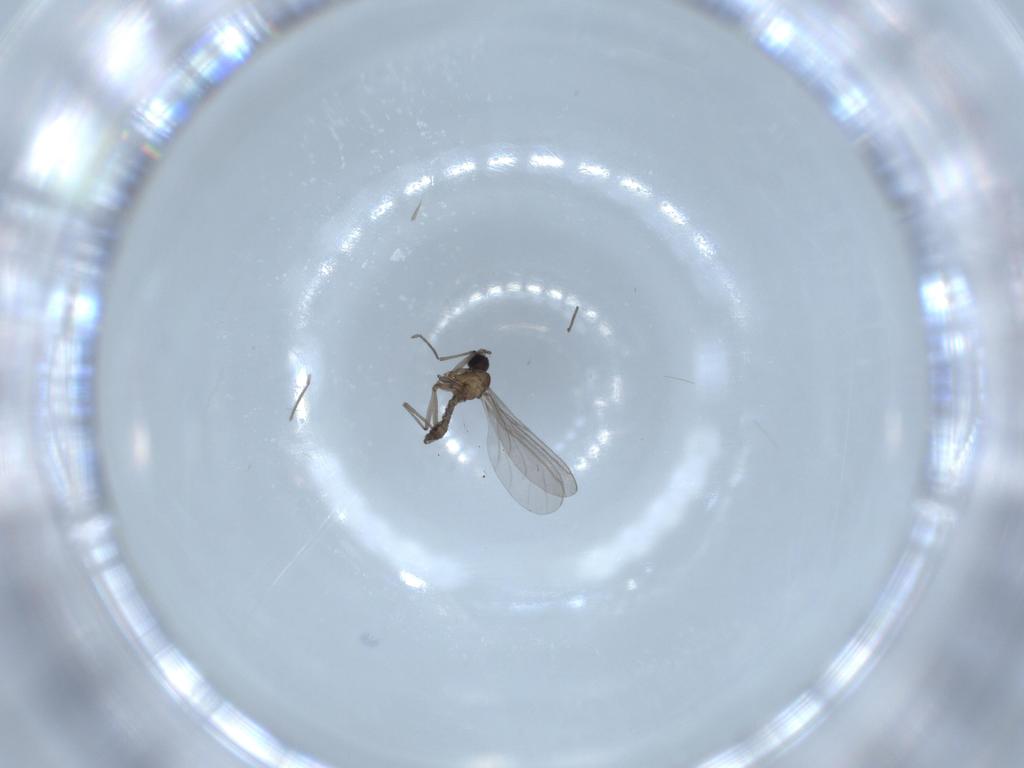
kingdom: Animalia
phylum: Arthropoda
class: Insecta
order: Diptera
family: Sciaridae
